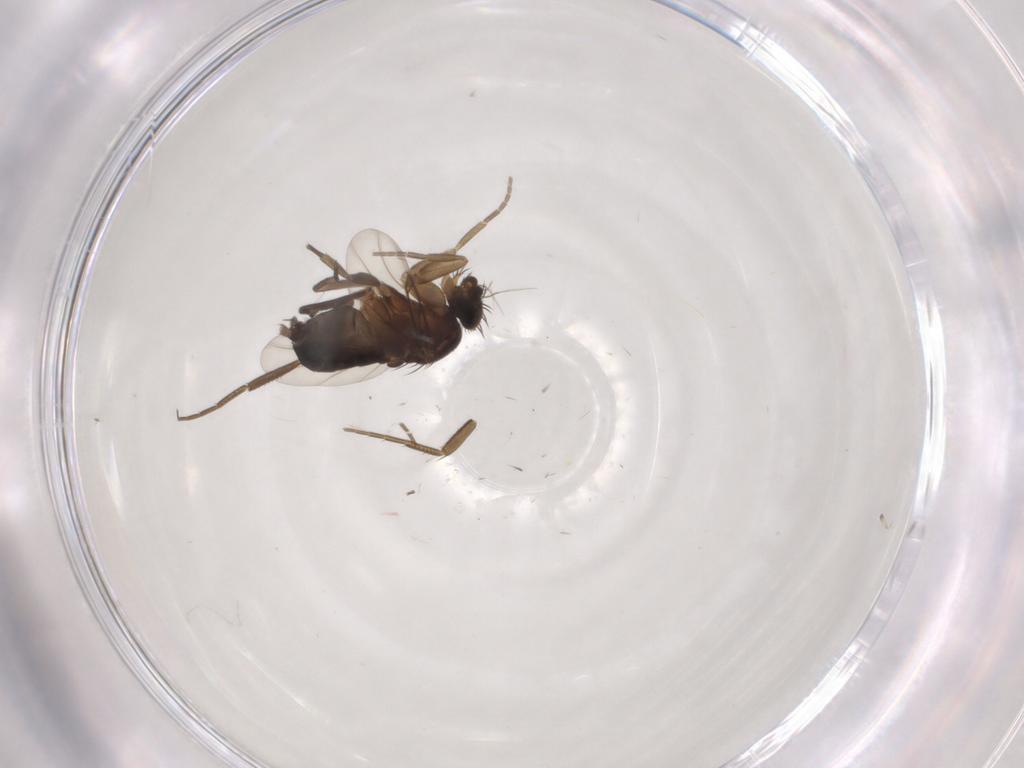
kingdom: Animalia
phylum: Arthropoda
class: Insecta
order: Diptera
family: Phoridae
